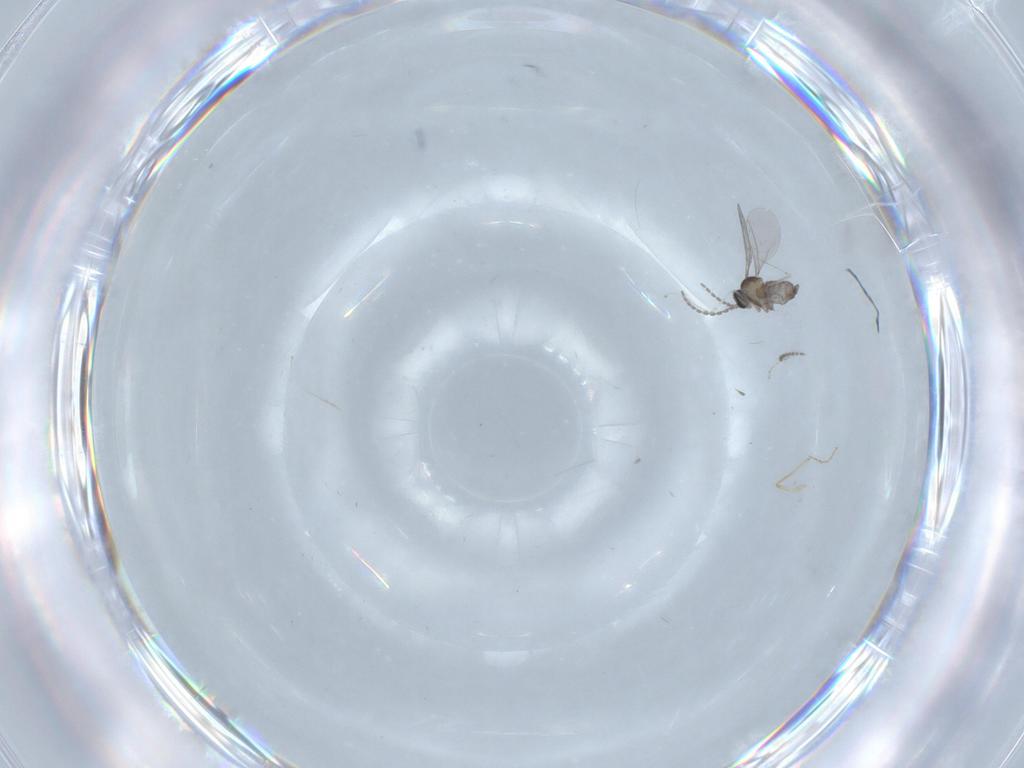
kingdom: Animalia
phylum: Arthropoda
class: Insecta
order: Diptera
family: Cecidomyiidae
